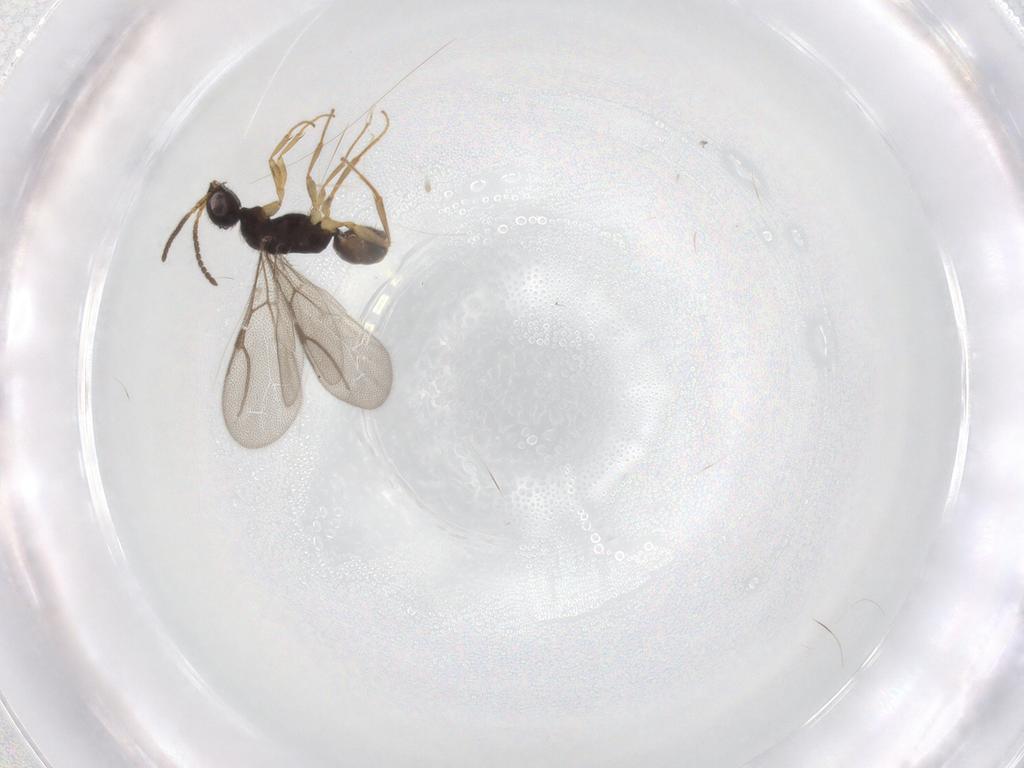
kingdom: Animalia
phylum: Arthropoda
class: Insecta
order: Hymenoptera
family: Bethylidae
